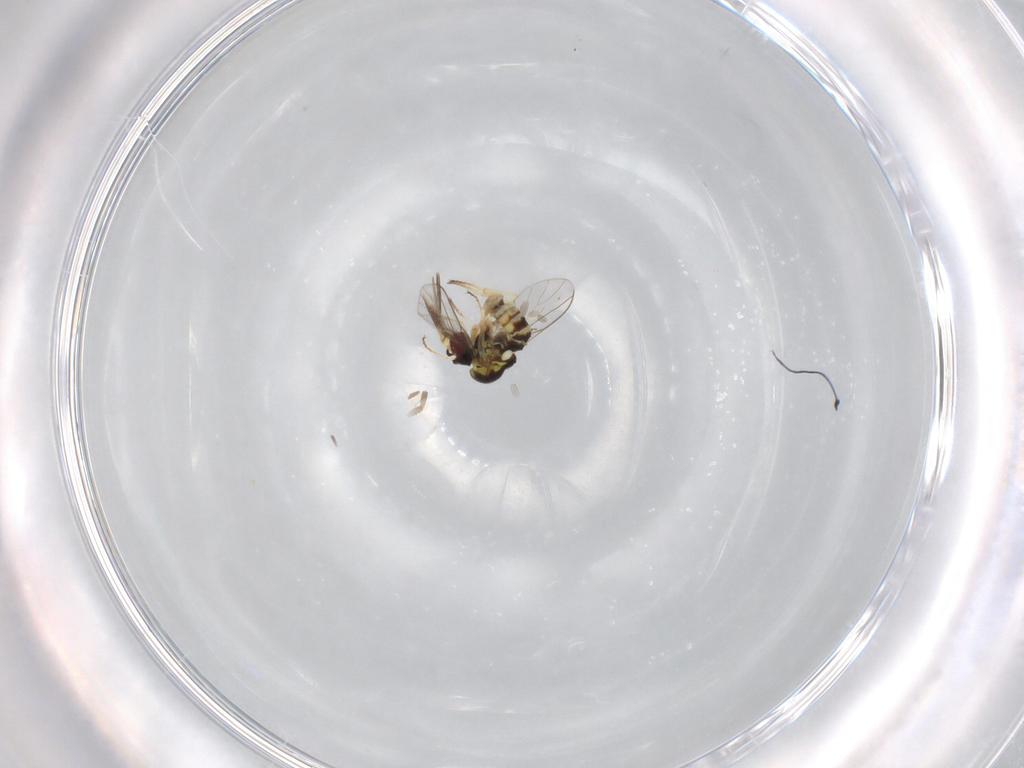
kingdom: Animalia
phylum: Arthropoda
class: Insecta
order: Diptera
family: Bombyliidae
